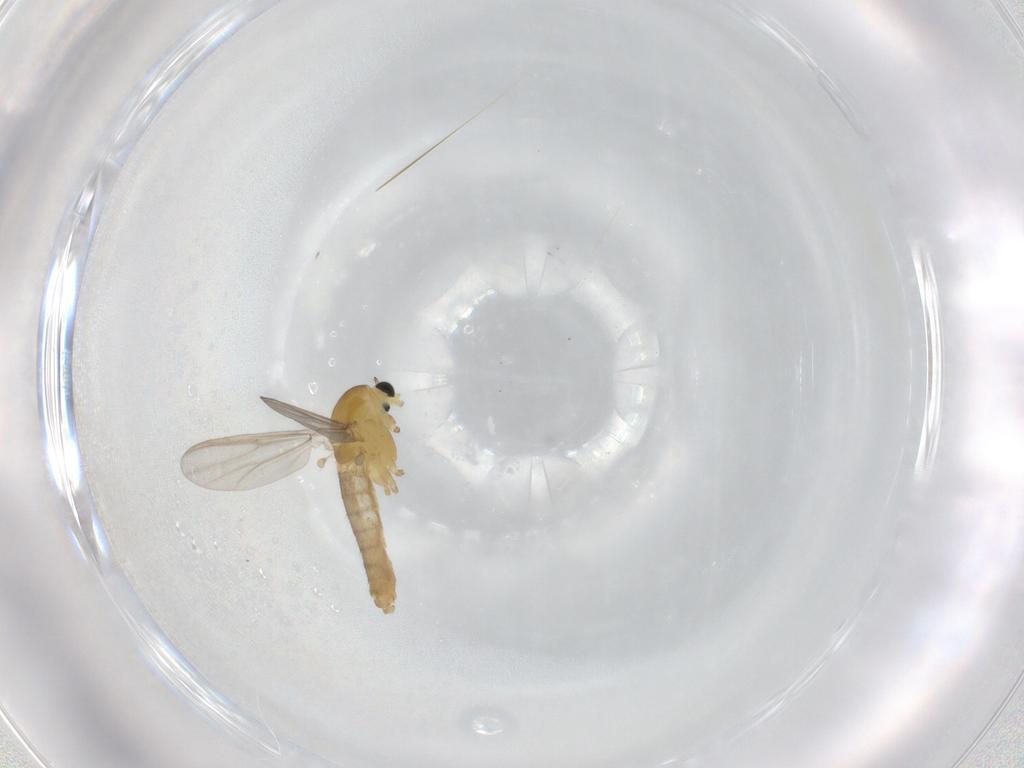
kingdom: Animalia
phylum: Arthropoda
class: Insecta
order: Diptera
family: Chironomidae
